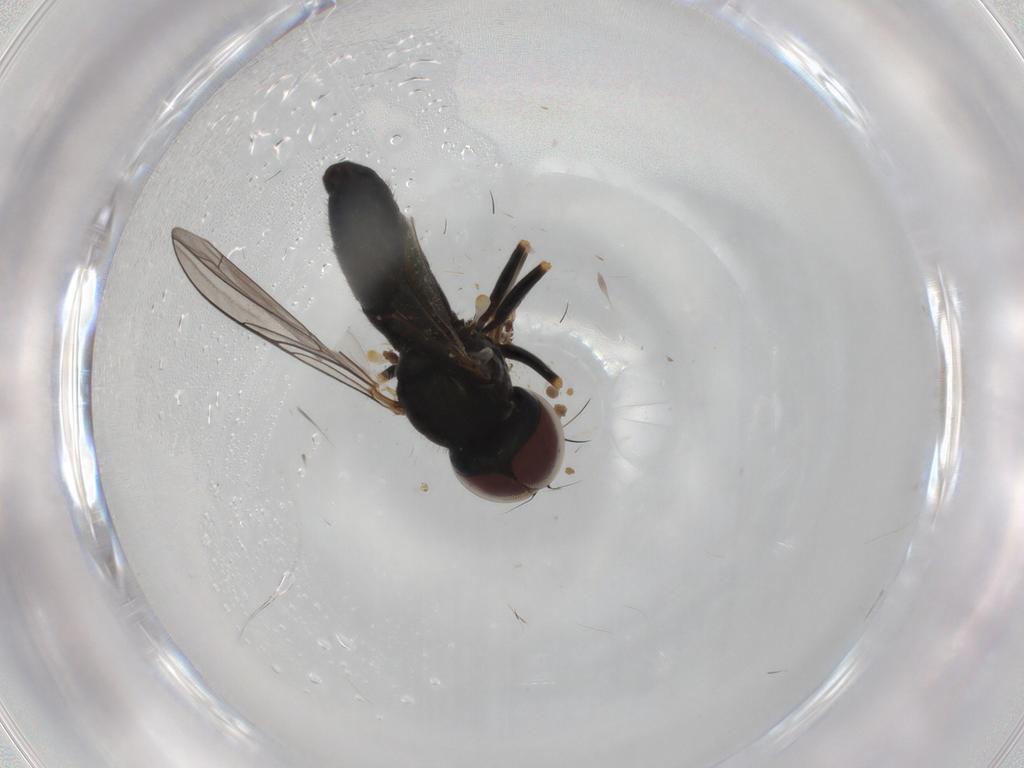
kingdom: Animalia
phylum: Arthropoda
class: Insecta
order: Diptera
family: Pipunculidae
